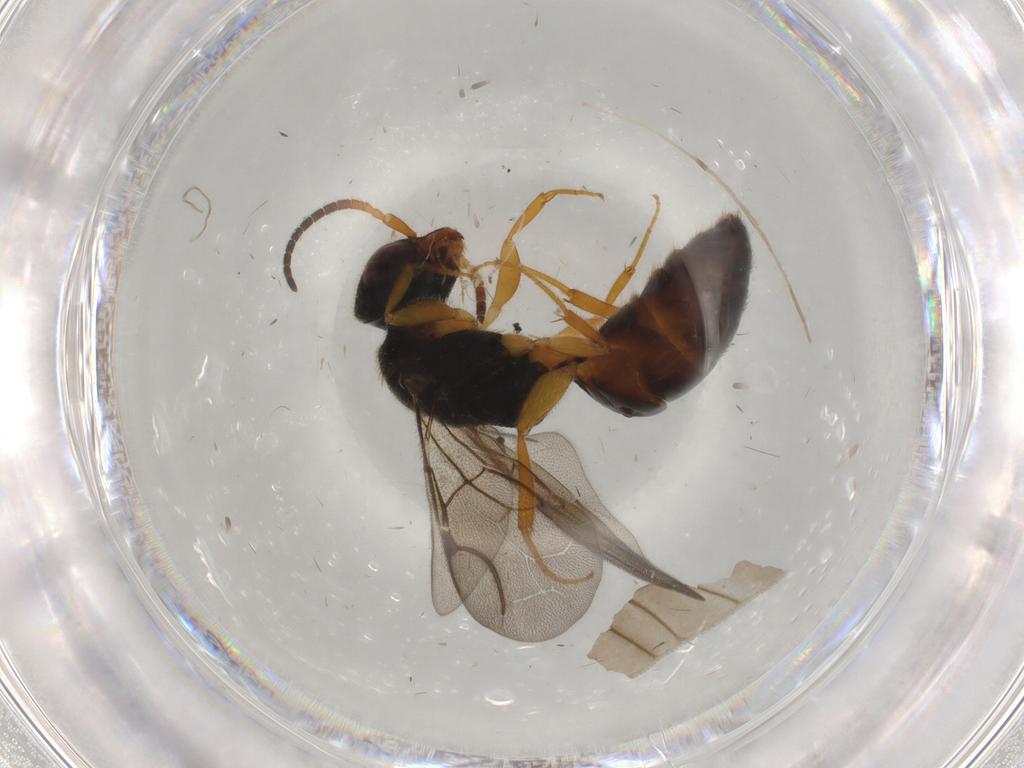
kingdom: Animalia
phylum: Arthropoda
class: Insecta
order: Hymenoptera
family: Bethylidae
